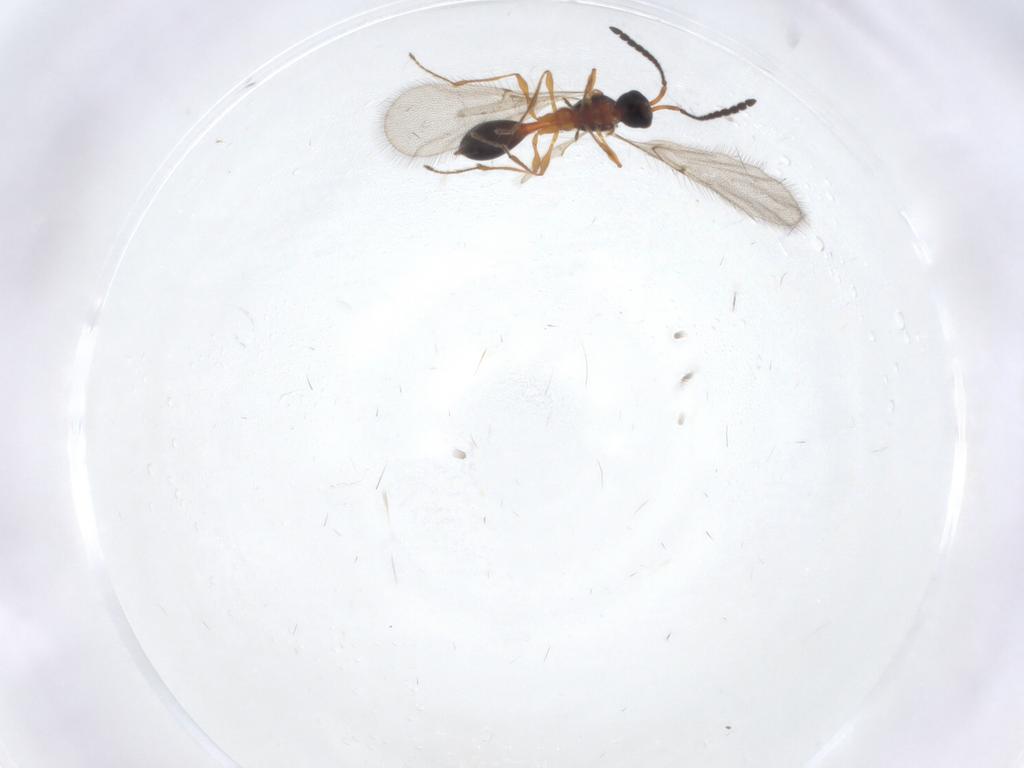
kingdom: Animalia
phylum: Arthropoda
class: Insecta
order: Hymenoptera
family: Diapriidae
